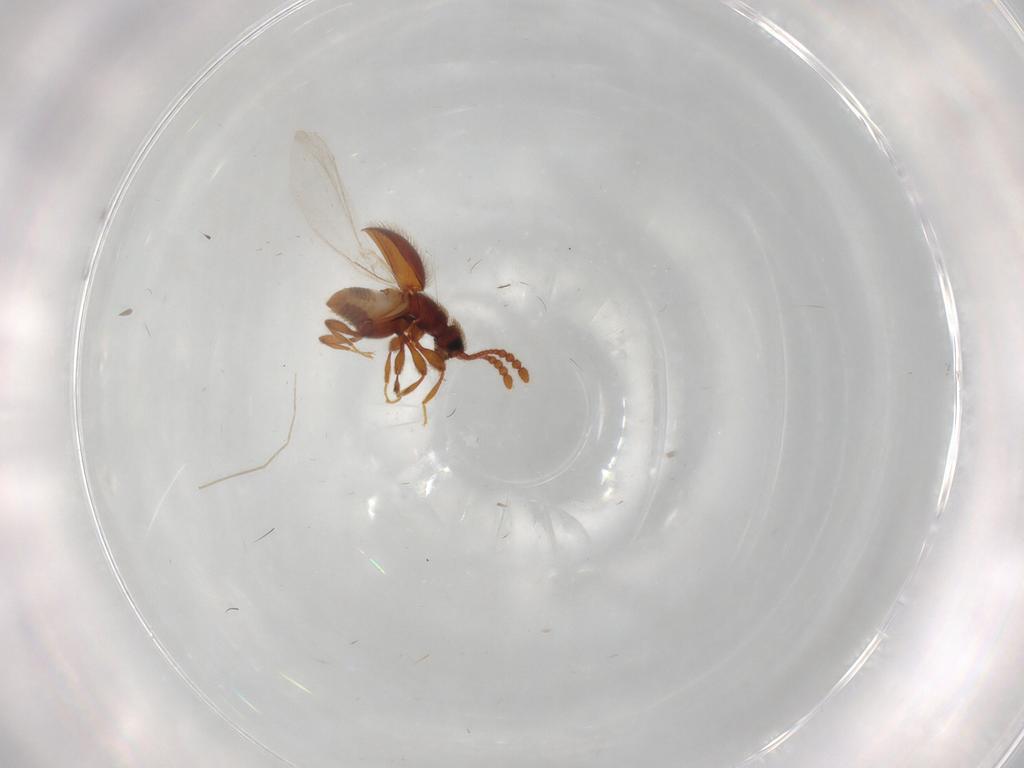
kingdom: Animalia
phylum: Arthropoda
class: Insecta
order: Coleoptera
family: Staphylinidae
